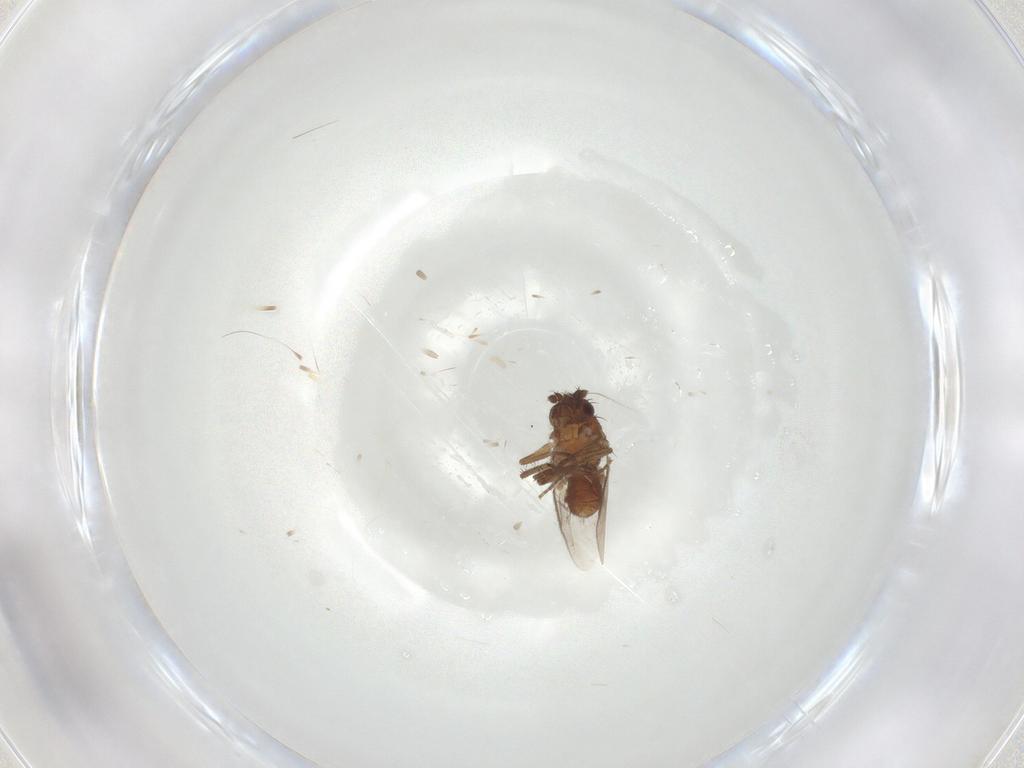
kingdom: Animalia
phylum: Arthropoda
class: Insecta
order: Diptera
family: Sphaeroceridae
